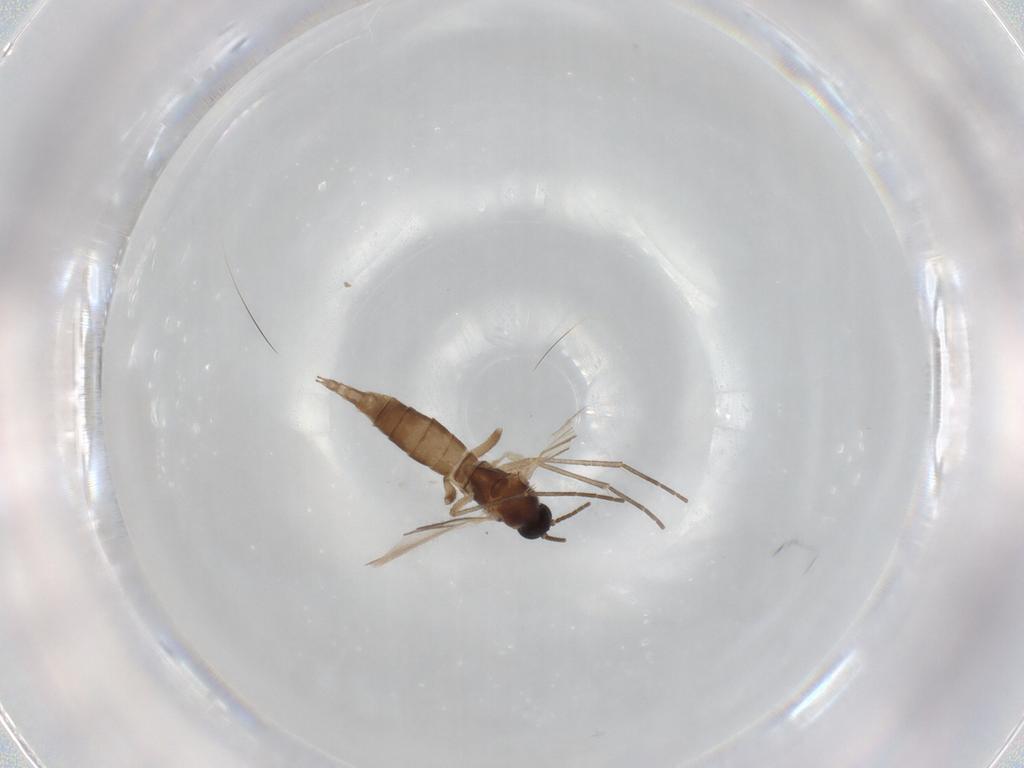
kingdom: Animalia
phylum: Arthropoda
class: Insecta
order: Diptera
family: Sciaridae
